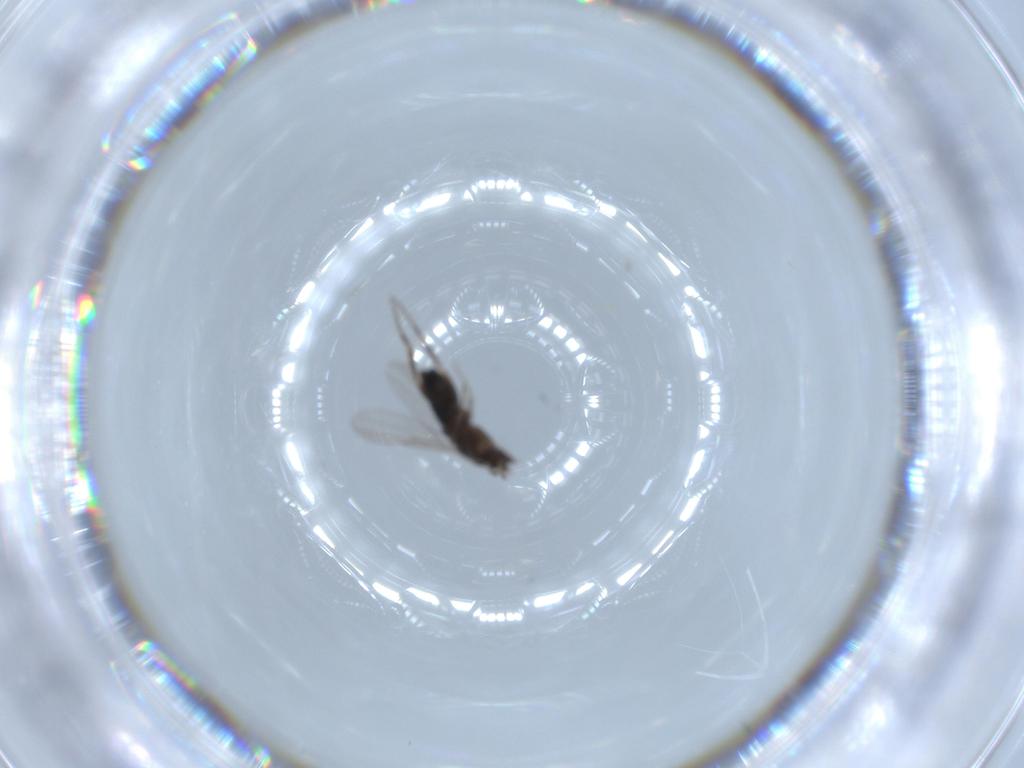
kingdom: Animalia
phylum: Arthropoda
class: Insecta
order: Diptera
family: Phoridae
